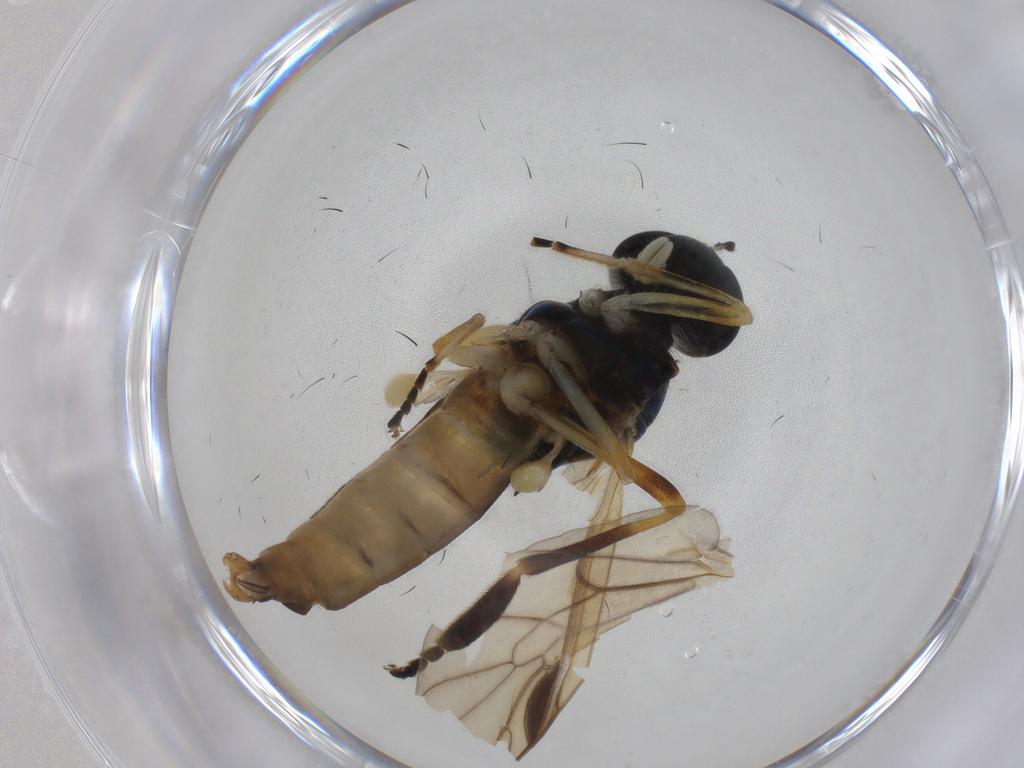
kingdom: Animalia
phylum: Arthropoda
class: Insecta
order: Diptera
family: Stratiomyidae
